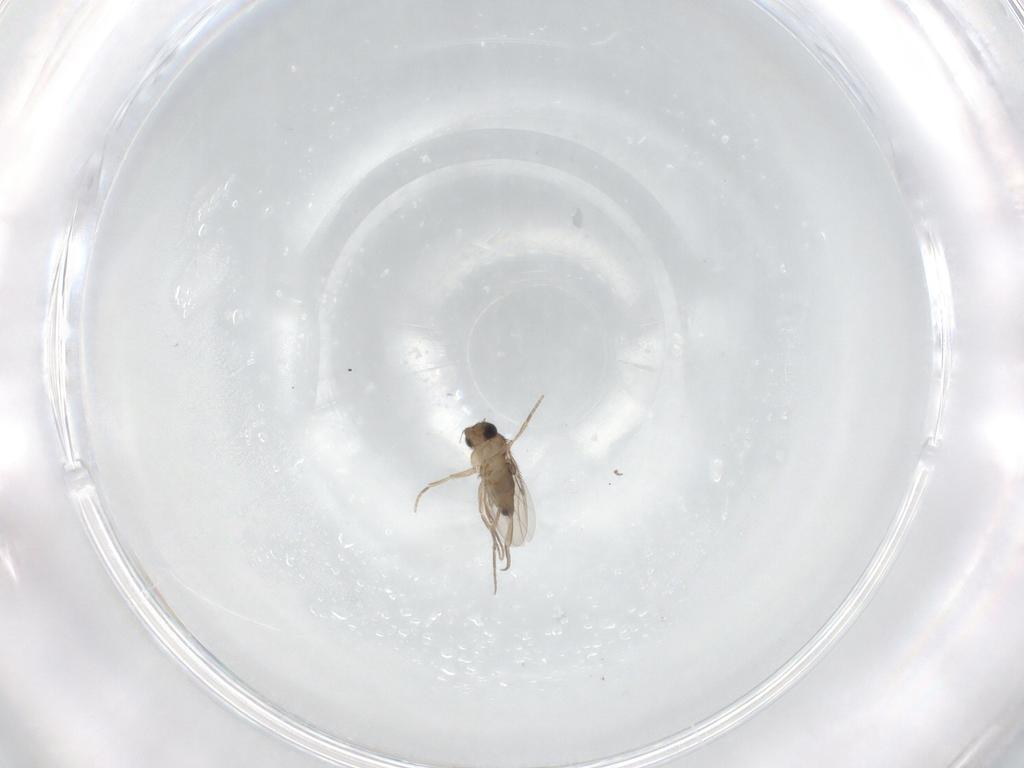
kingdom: Animalia
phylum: Arthropoda
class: Insecta
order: Diptera
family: Phoridae
